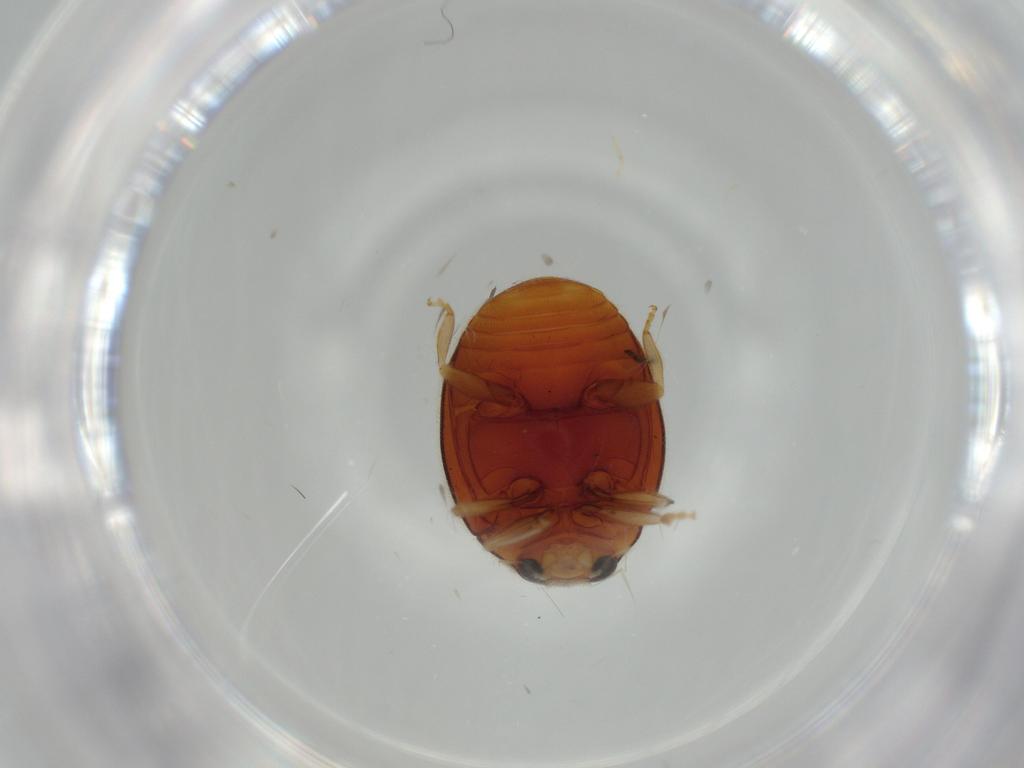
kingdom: Animalia
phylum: Arthropoda
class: Insecta
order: Coleoptera
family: Coccinellidae
